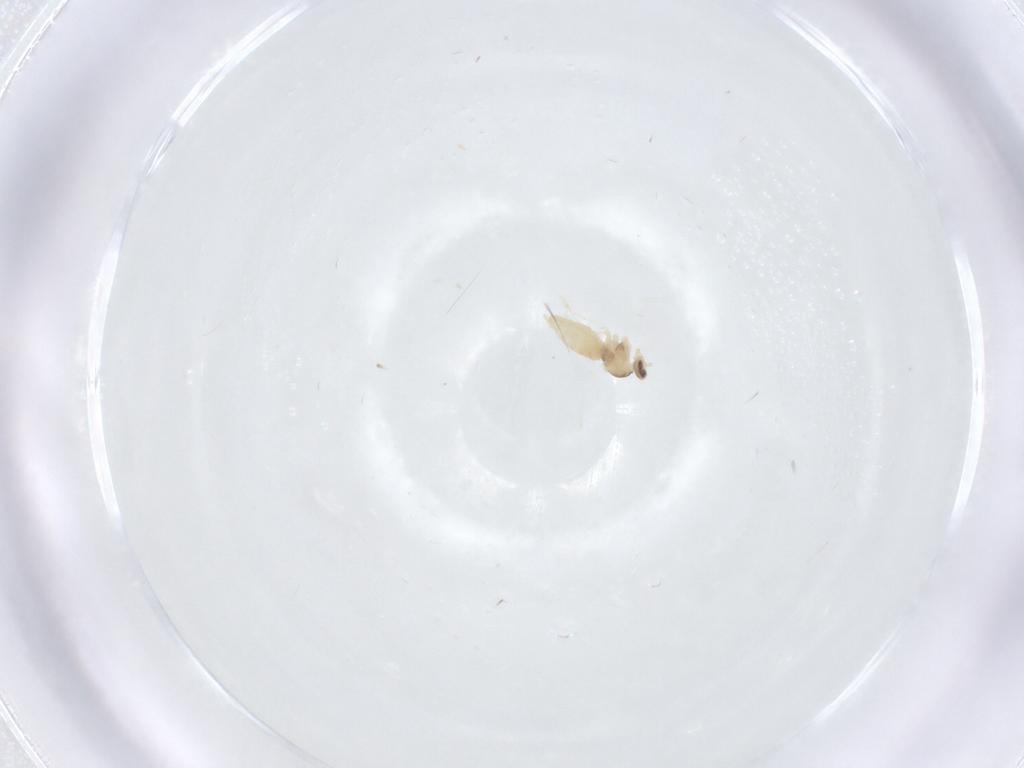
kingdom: Animalia
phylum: Arthropoda
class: Insecta
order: Diptera
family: Cecidomyiidae
